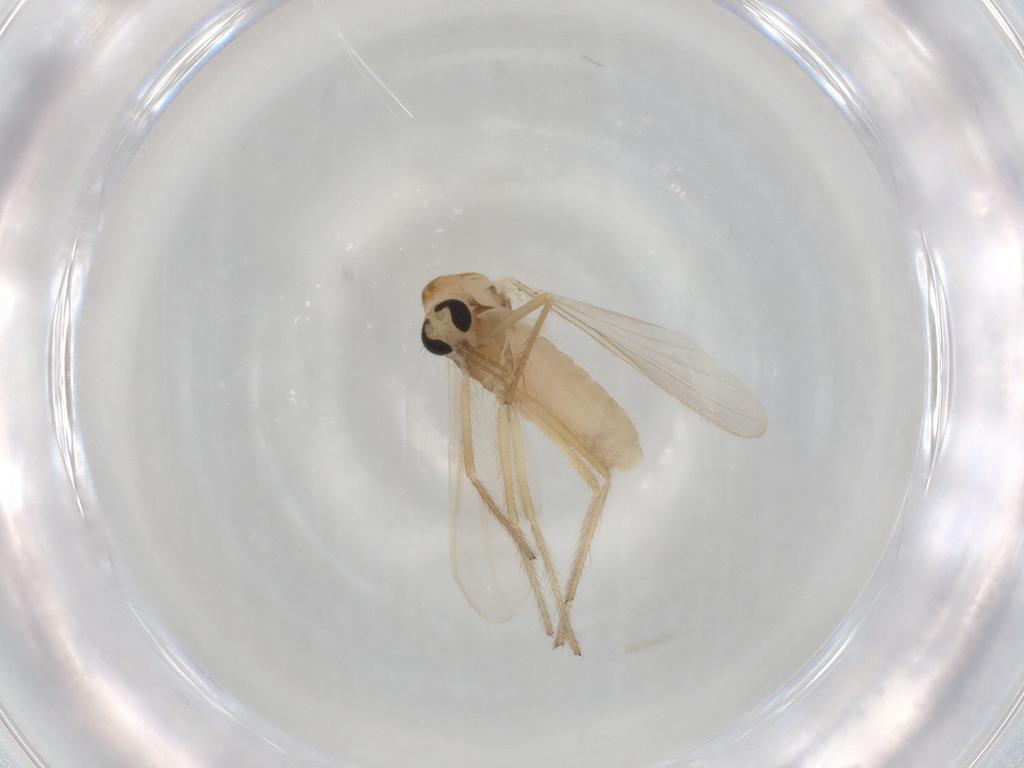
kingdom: Animalia
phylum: Arthropoda
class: Insecta
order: Diptera
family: Chironomidae
